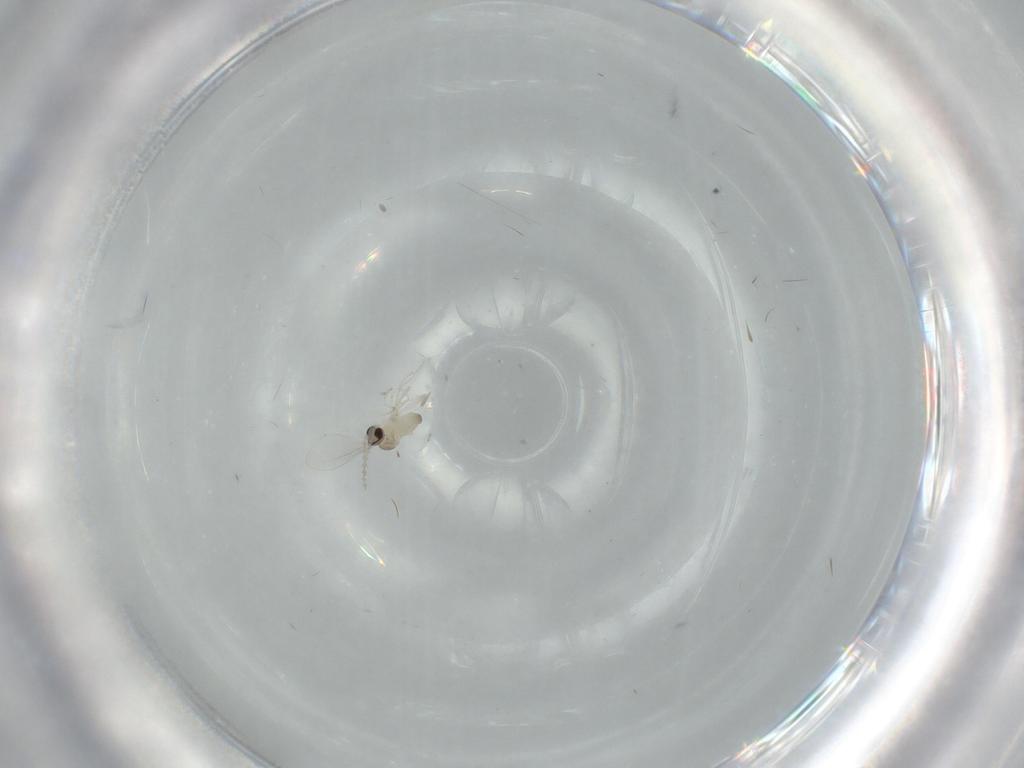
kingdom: Animalia
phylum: Arthropoda
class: Insecta
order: Diptera
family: Cecidomyiidae
